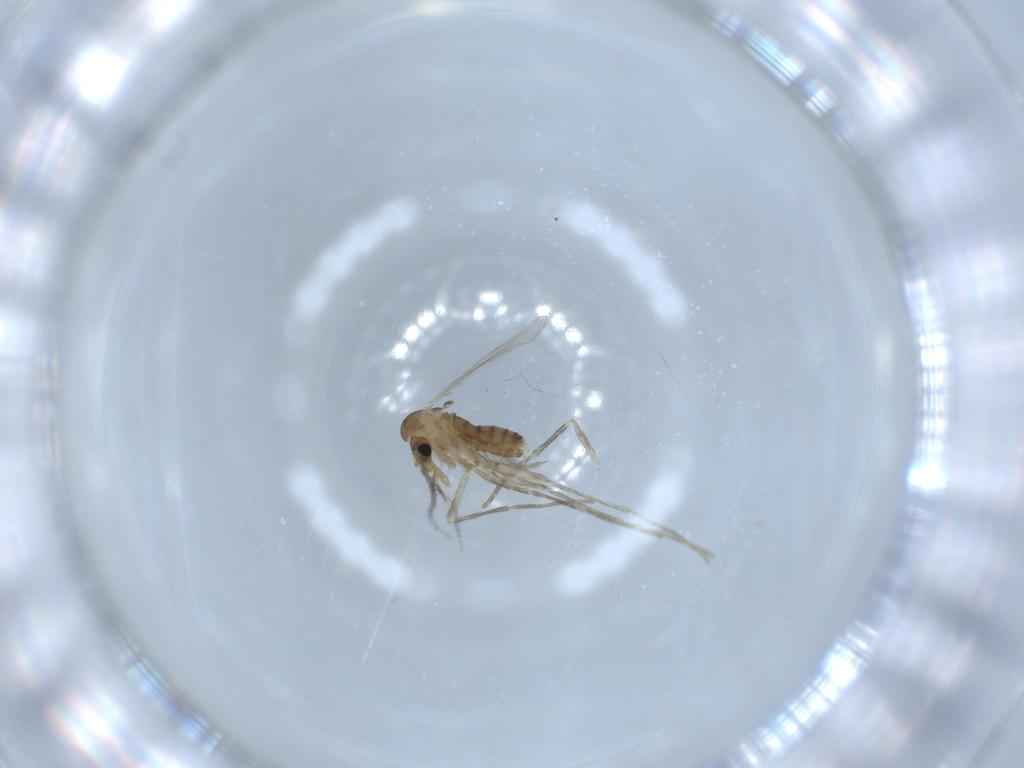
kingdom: Animalia
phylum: Arthropoda
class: Insecta
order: Diptera
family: Psychodidae
